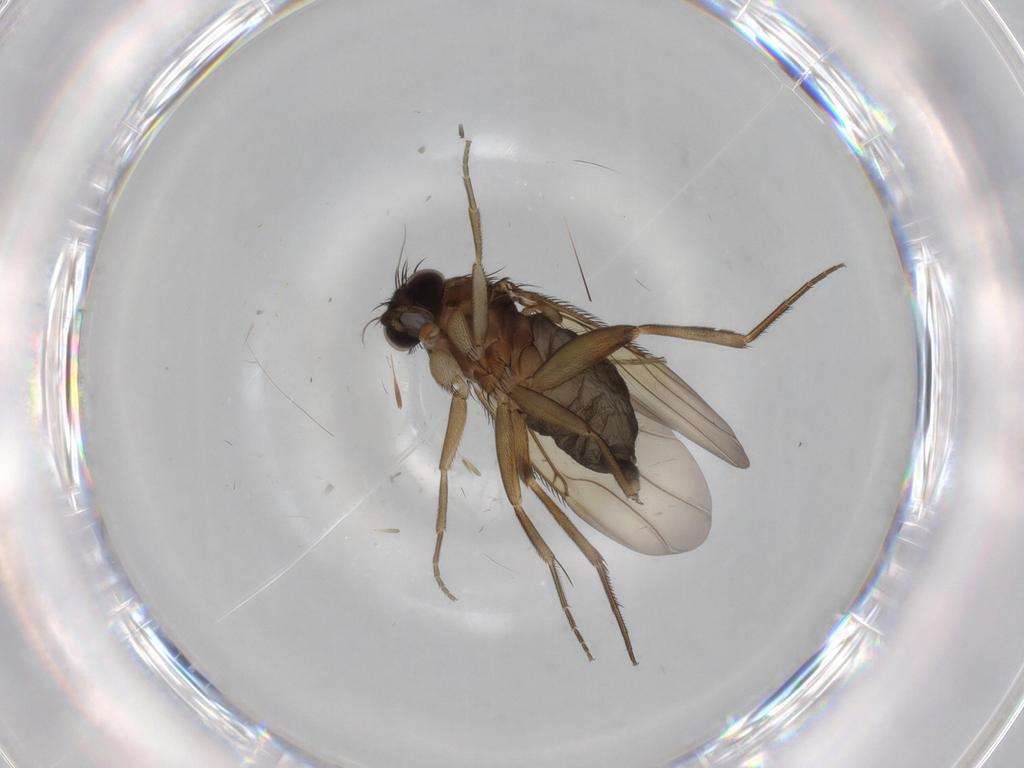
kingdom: Animalia
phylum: Arthropoda
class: Insecta
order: Diptera
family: Phoridae
